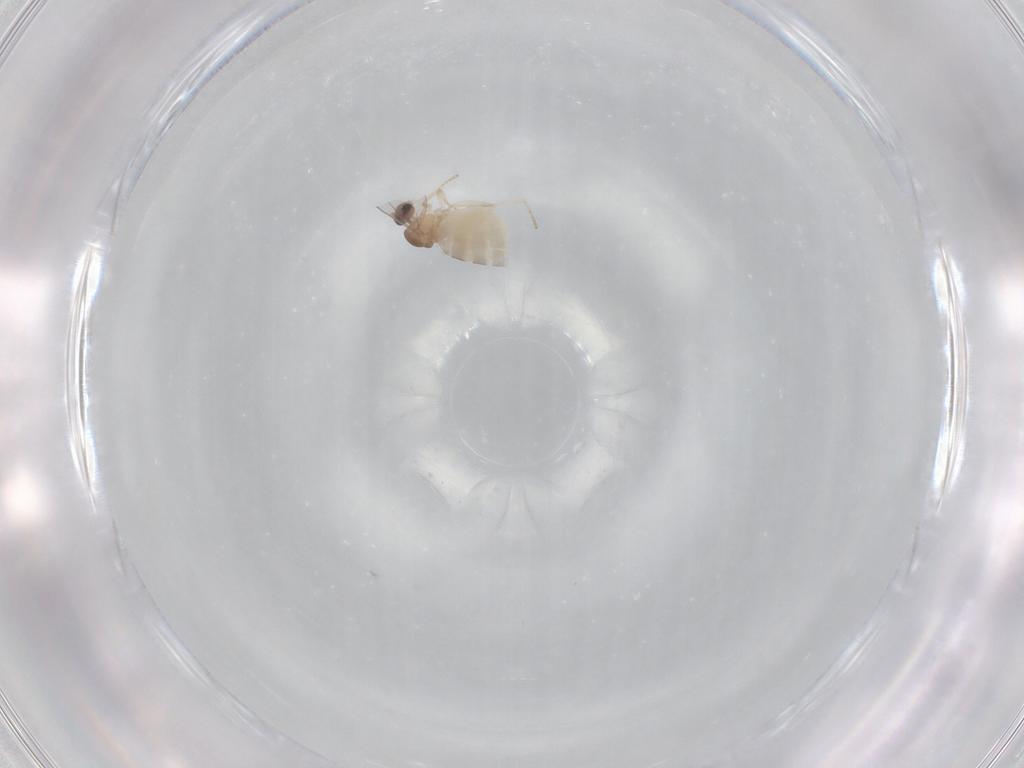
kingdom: Animalia
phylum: Arthropoda
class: Insecta
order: Diptera
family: Cecidomyiidae
